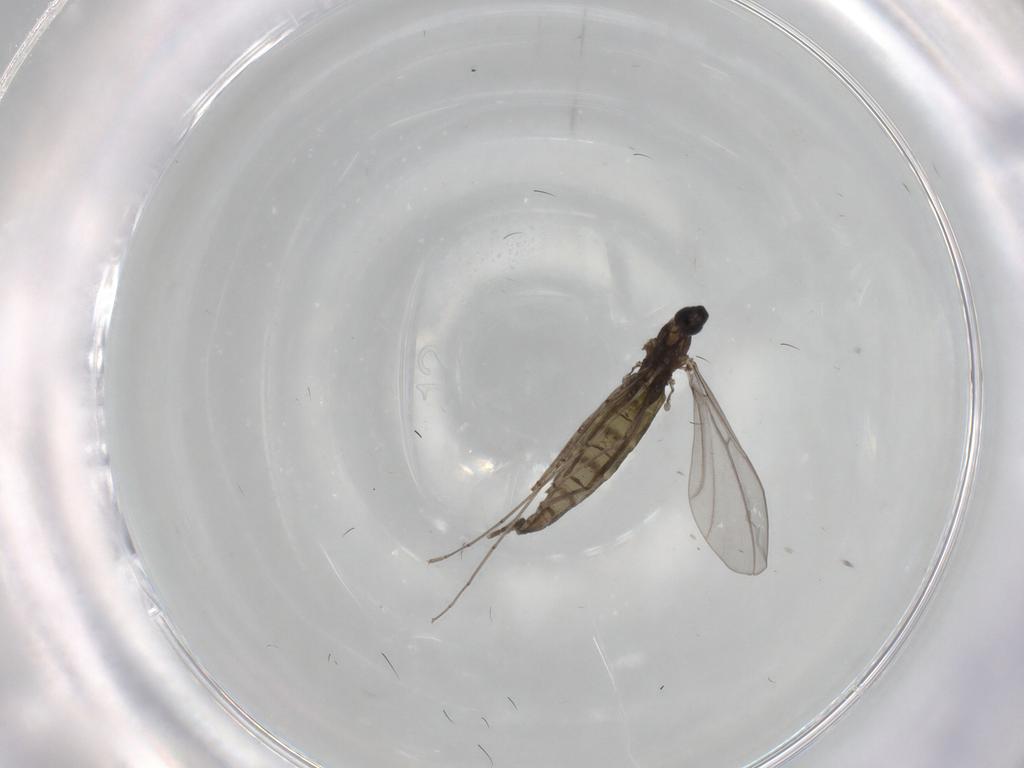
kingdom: Animalia
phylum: Arthropoda
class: Insecta
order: Diptera
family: Cecidomyiidae
